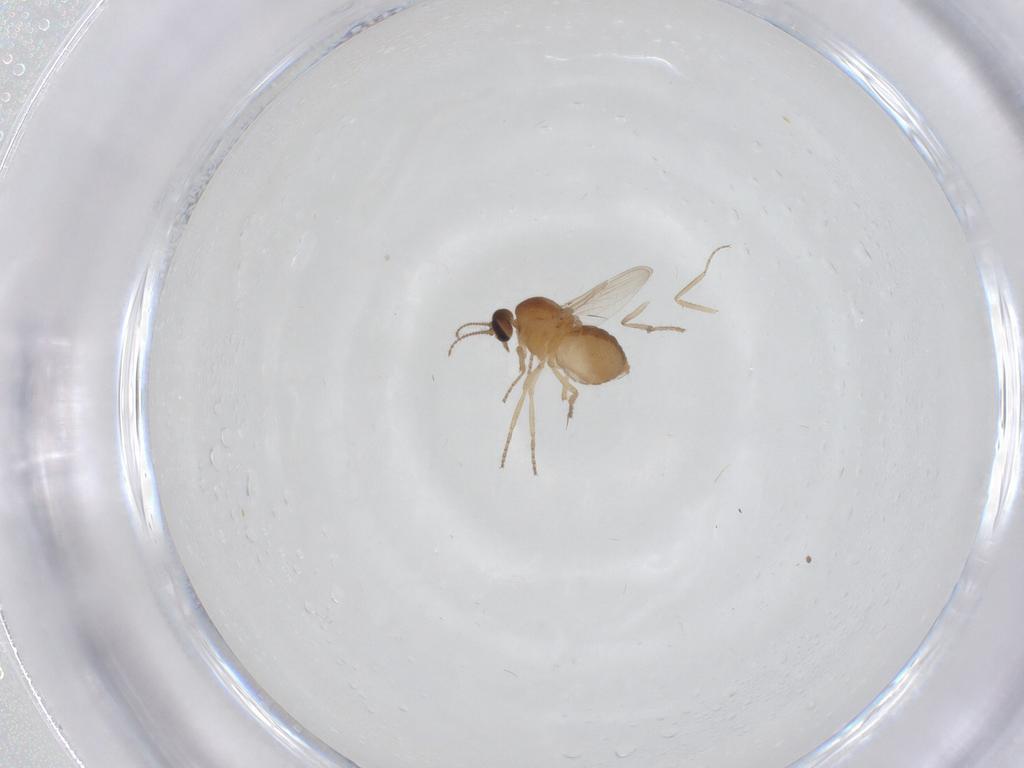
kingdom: Animalia
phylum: Arthropoda
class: Insecta
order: Diptera
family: Ceratopogonidae
